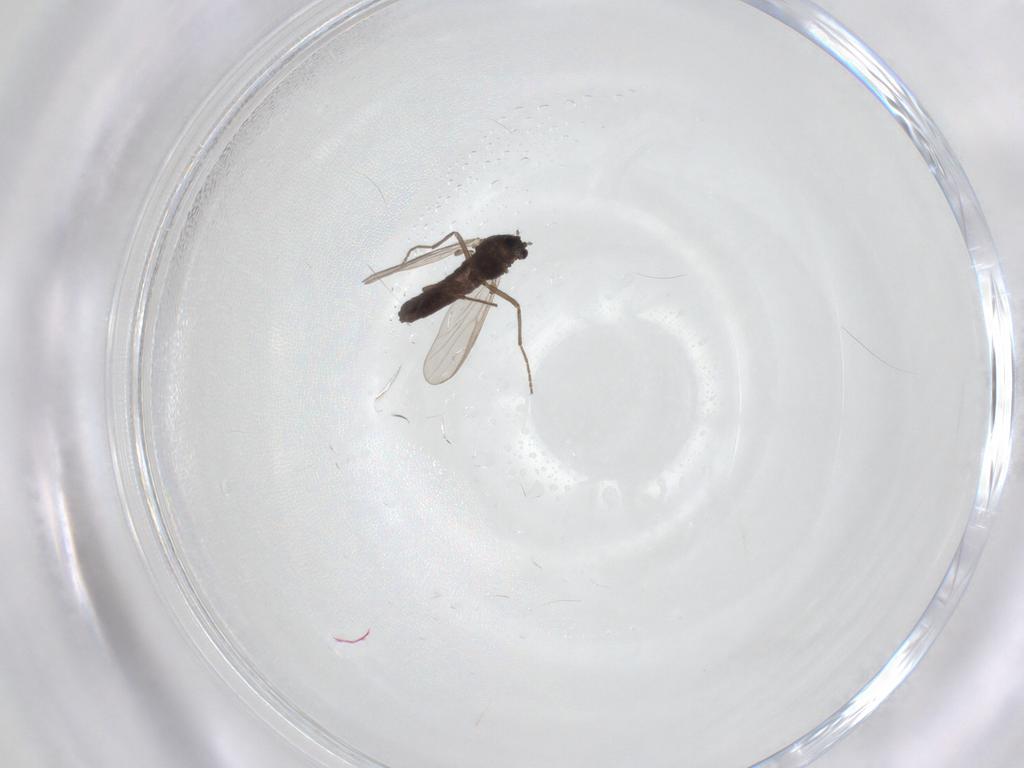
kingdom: Animalia
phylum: Arthropoda
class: Insecta
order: Diptera
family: Chironomidae
